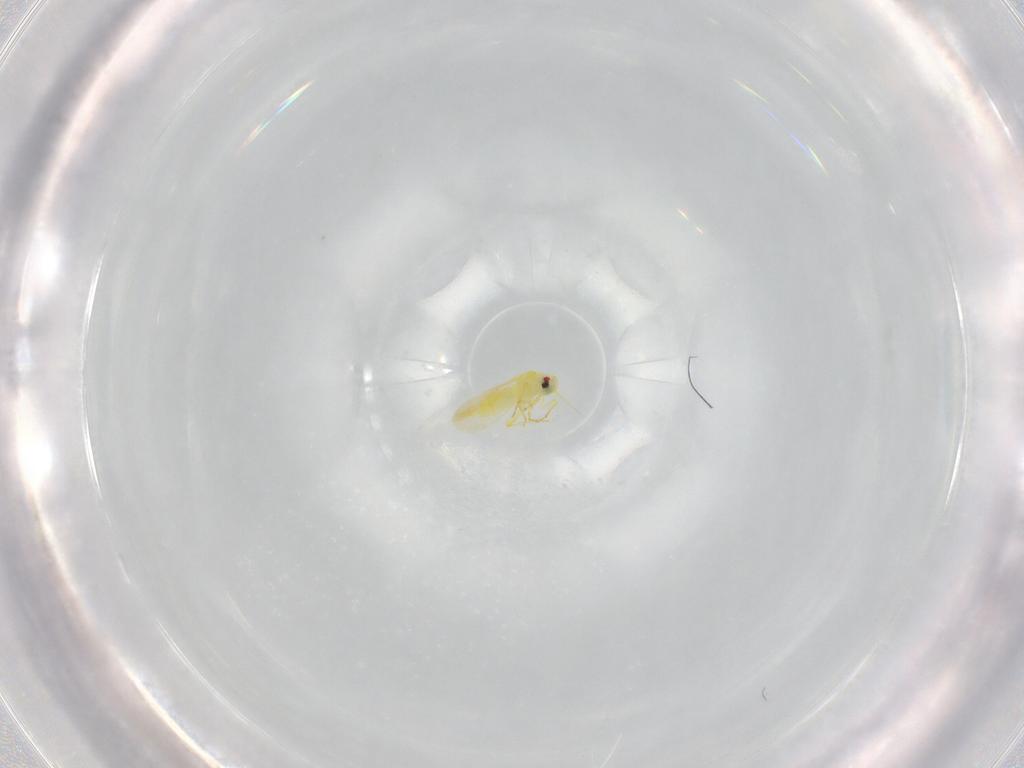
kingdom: Animalia
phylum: Arthropoda
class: Insecta
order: Hemiptera
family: Aleyrodidae
